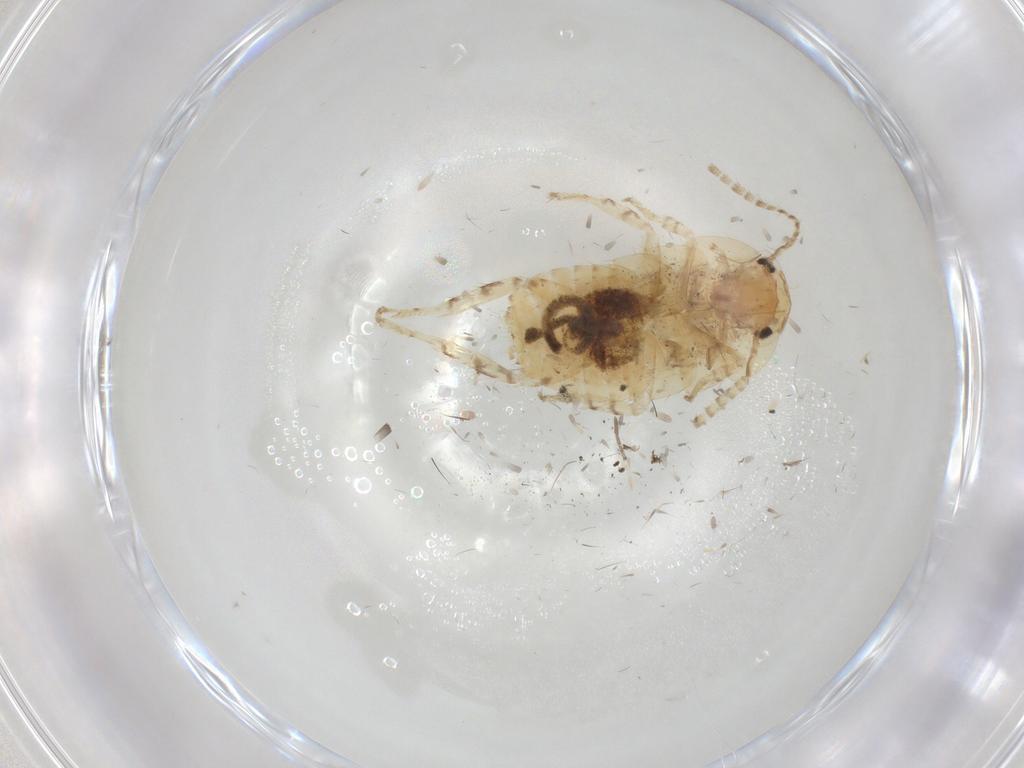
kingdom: Animalia
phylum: Arthropoda
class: Insecta
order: Blattodea
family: Ectobiidae
